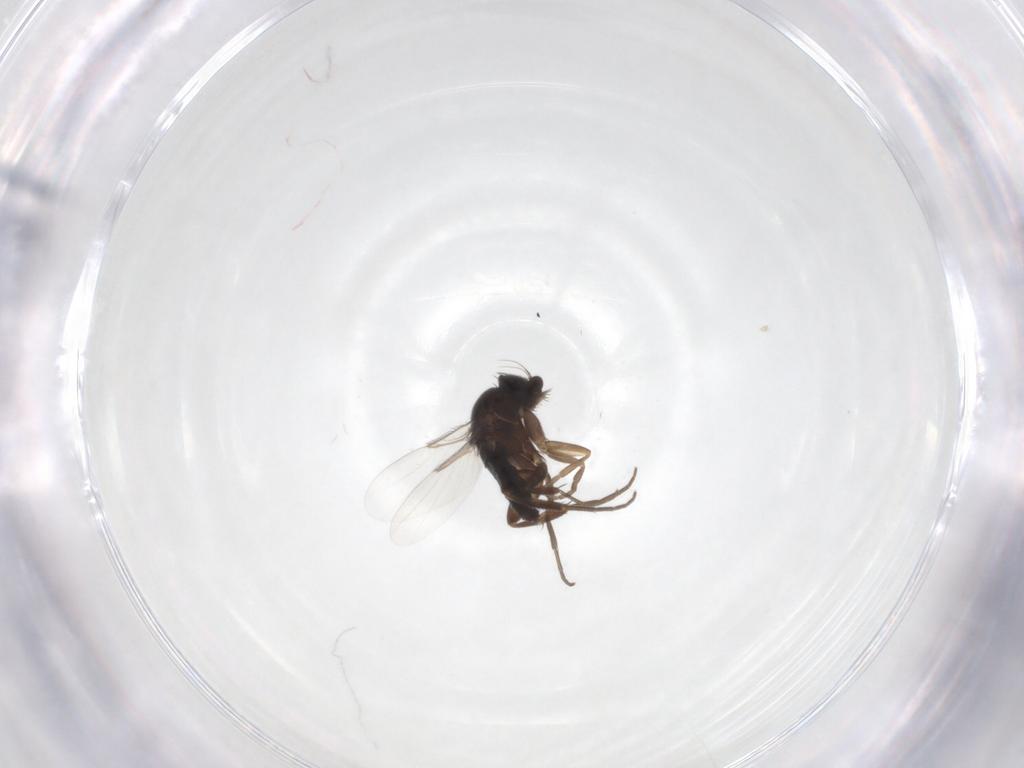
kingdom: Animalia
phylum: Arthropoda
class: Insecta
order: Diptera
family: Phoridae
